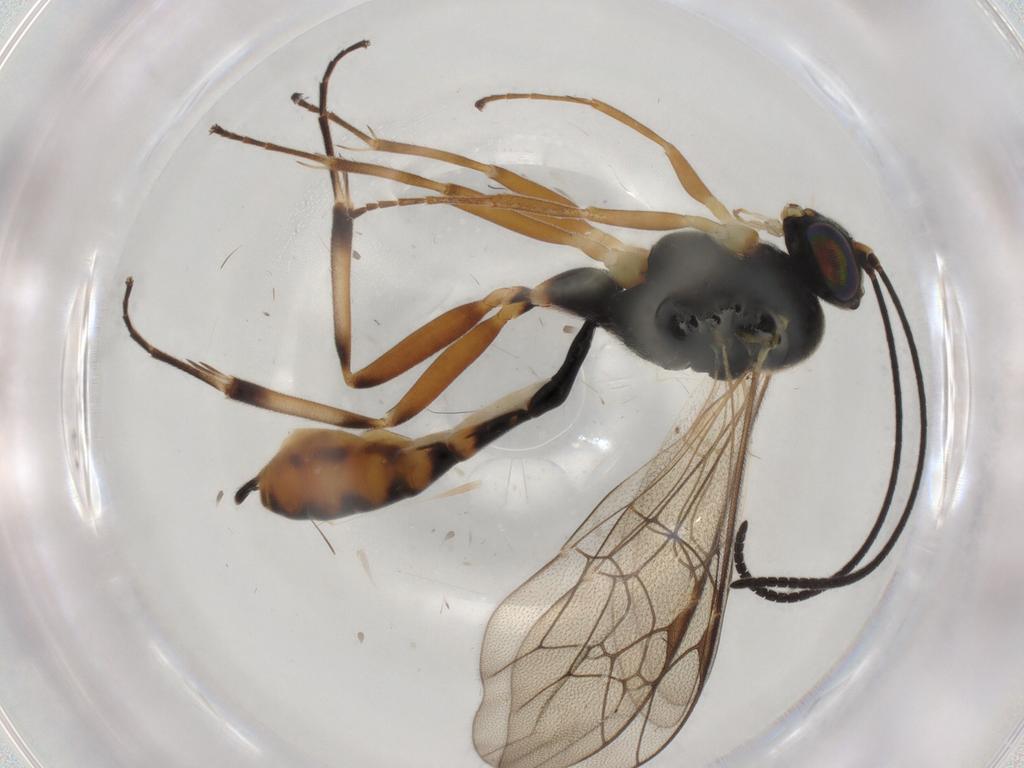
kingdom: Animalia
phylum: Arthropoda
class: Insecta
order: Hymenoptera
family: Ichneumonidae
